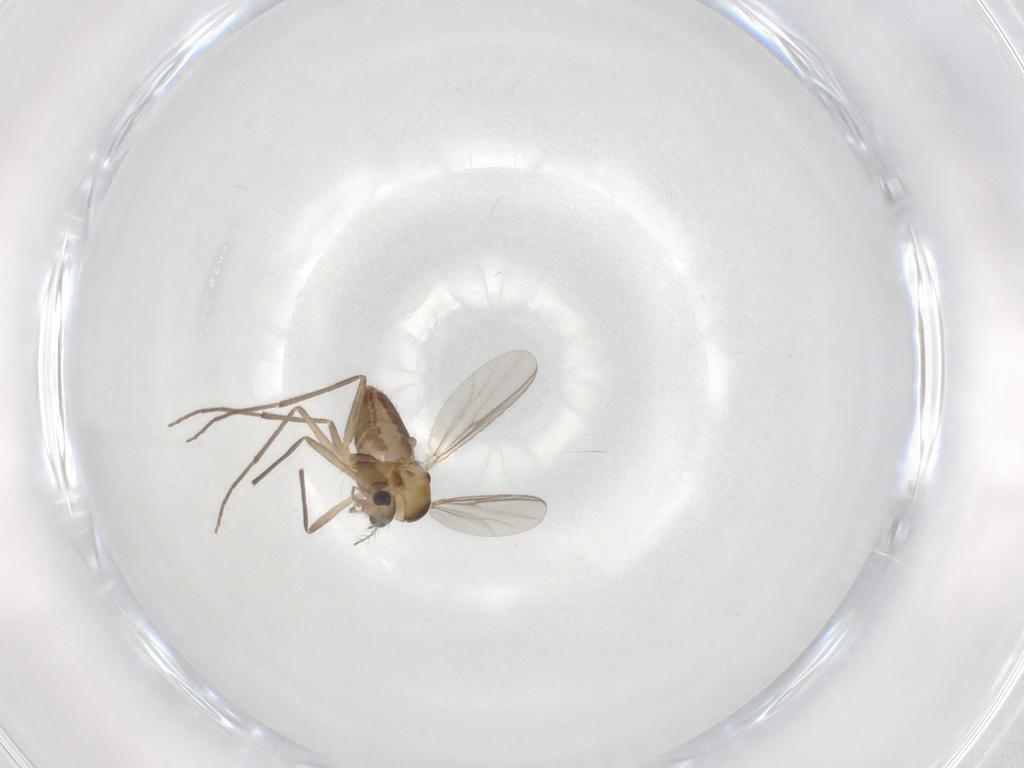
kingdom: Animalia
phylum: Arthropoda
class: Insecta
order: Diptera
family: Chironomidae
